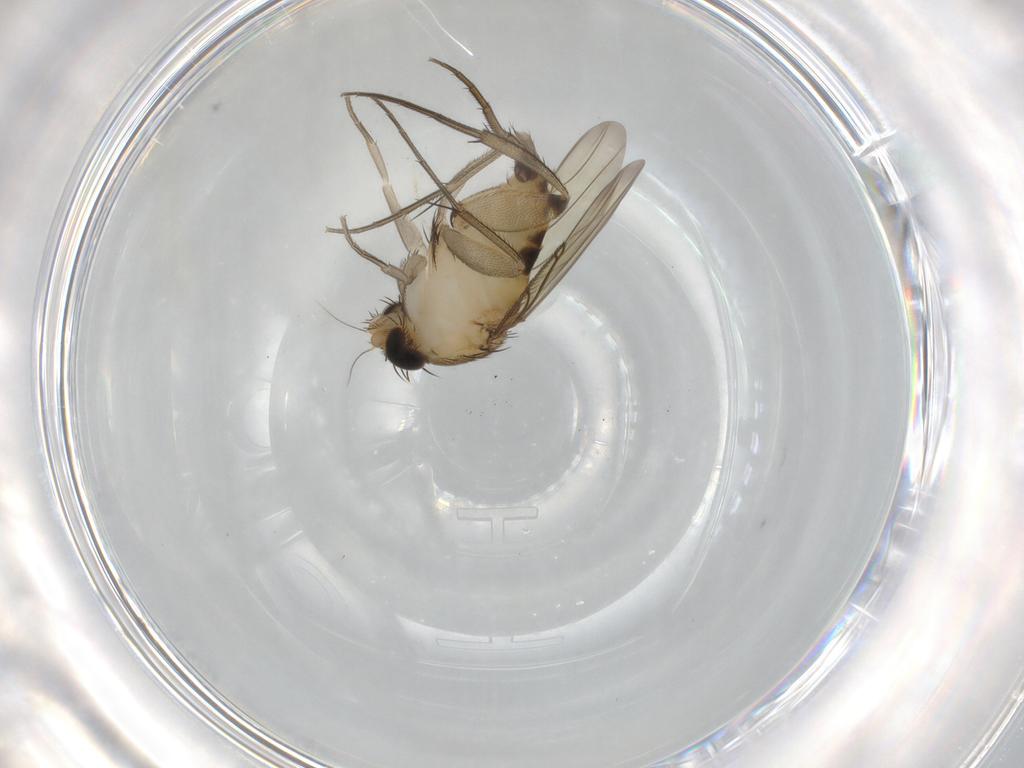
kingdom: Animalia
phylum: Arthropoda
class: Insecta
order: Diptera
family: Phoridae
